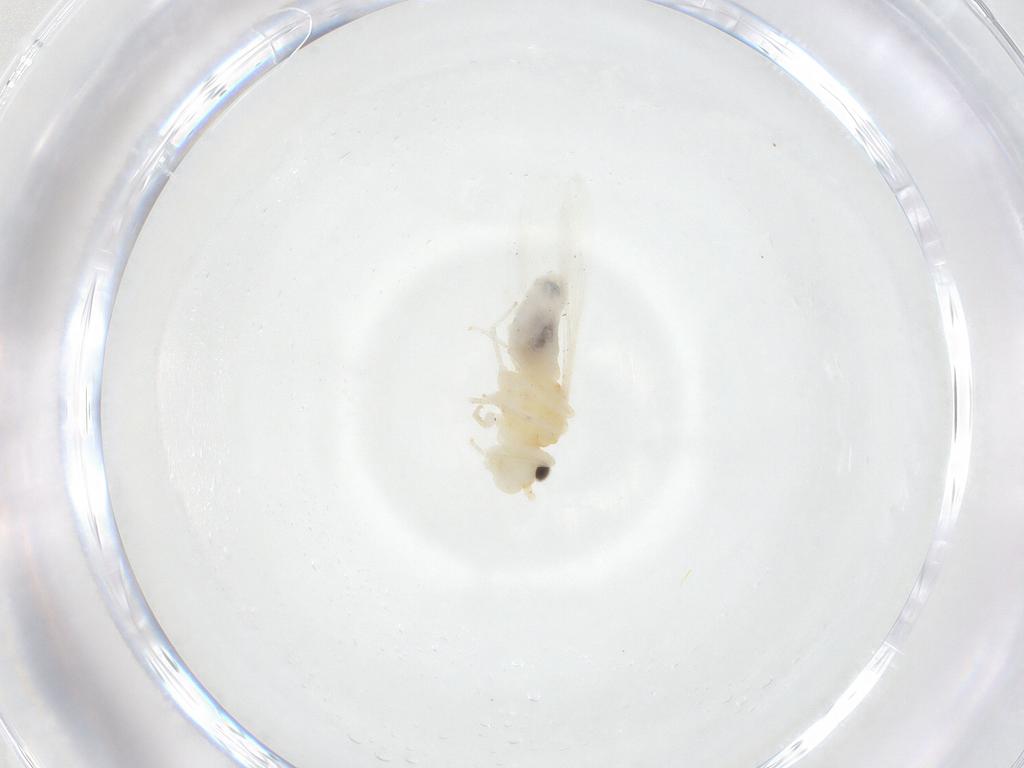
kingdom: Animalia
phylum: Arthropoda
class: Insecta
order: Psocodea
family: Caeciliusidae
